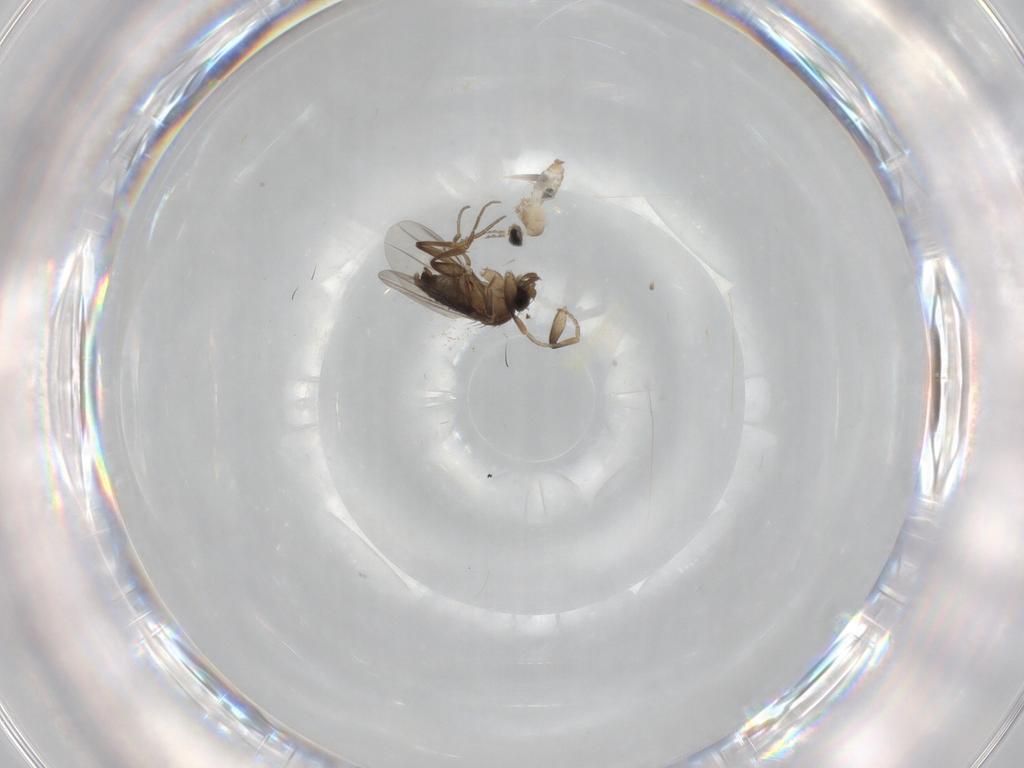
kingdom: Animalia
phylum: Arthropoda
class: Insecta
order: Diptera
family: Cecidomyiidae
